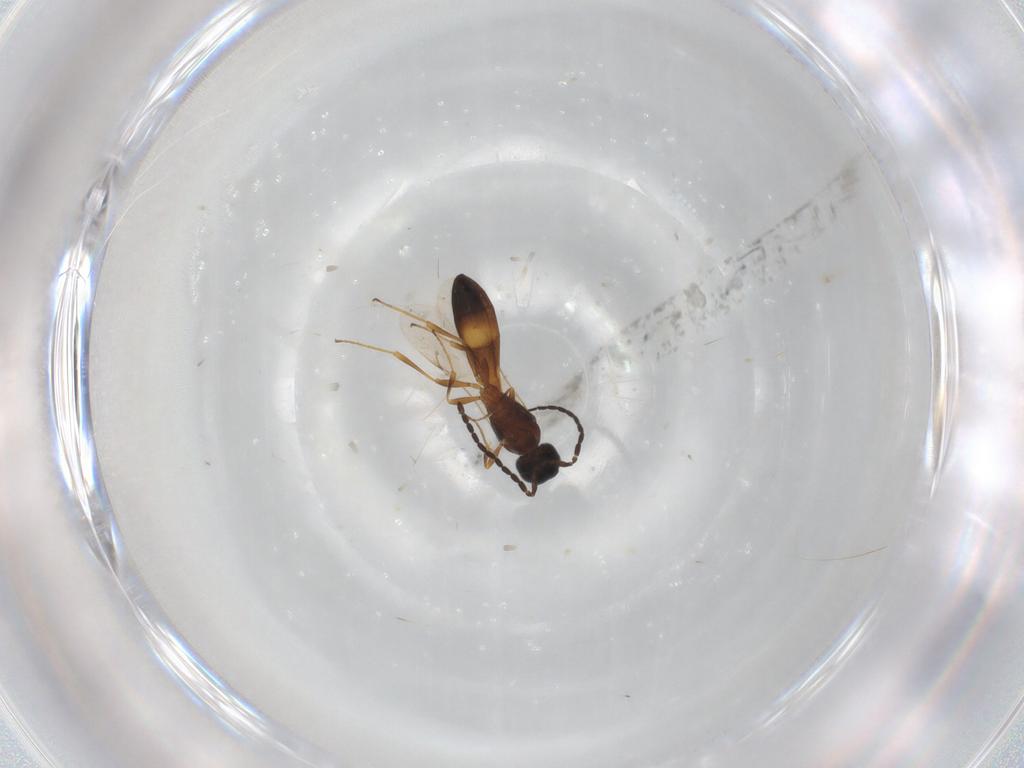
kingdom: Animalia
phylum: Arthropoda
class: Insecta
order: Hymenoptera
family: Scelionidae
